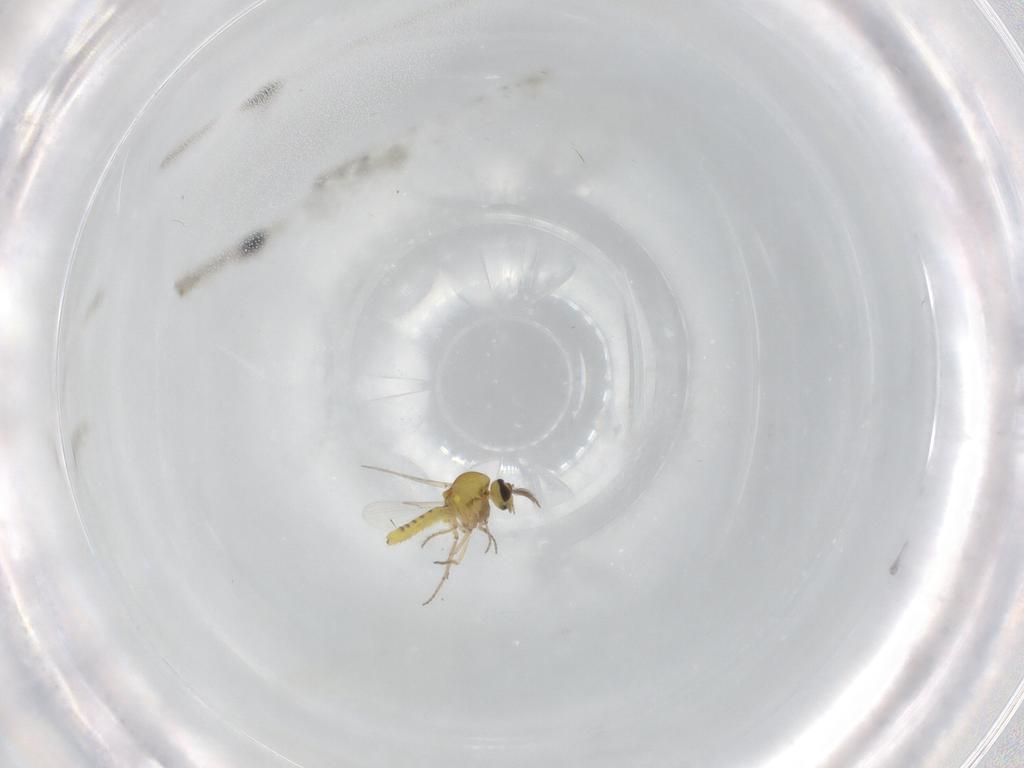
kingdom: Animalia
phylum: Arthropoda
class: Insecta
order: Diptera
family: Ceratopogonidae
